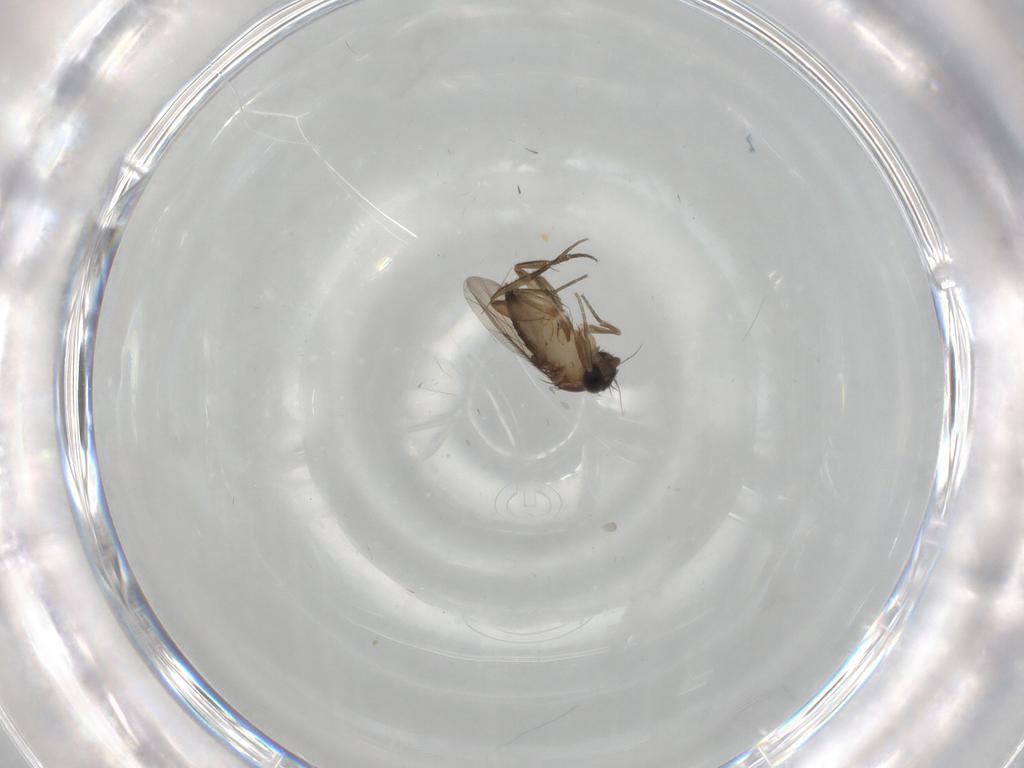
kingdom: Animalia
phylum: Arthropoda
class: Insecta
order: Diptera
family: Phoridae
